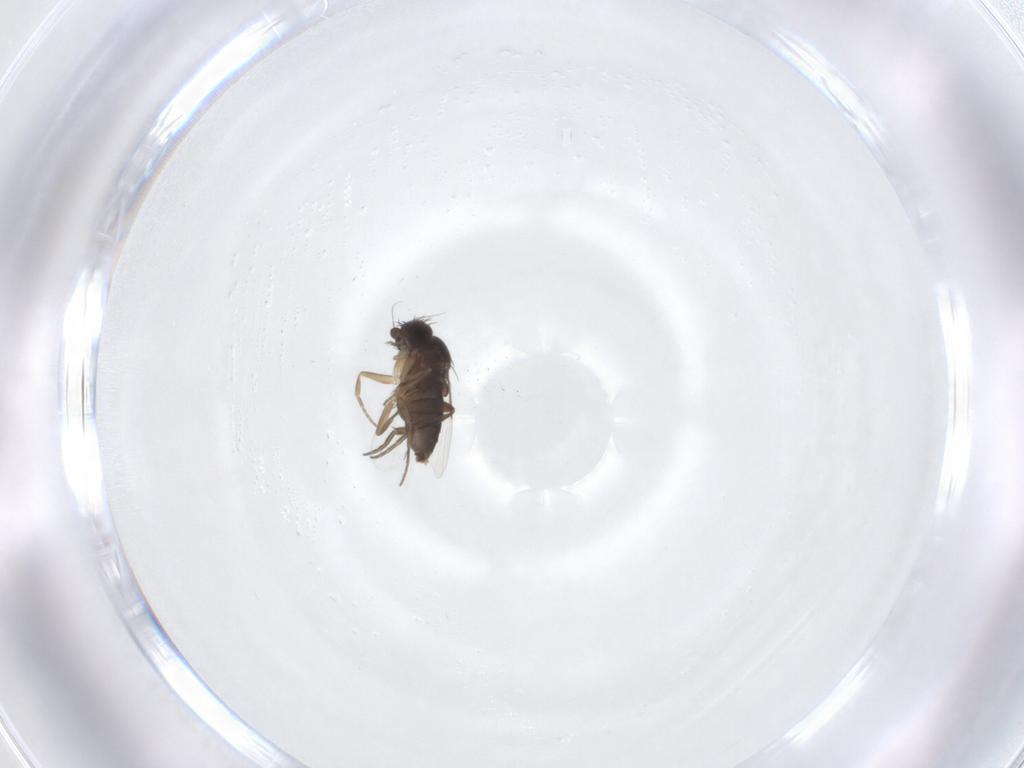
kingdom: Animalia
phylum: Arthropoda
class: Insecta
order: Diptera
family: Phoridae
